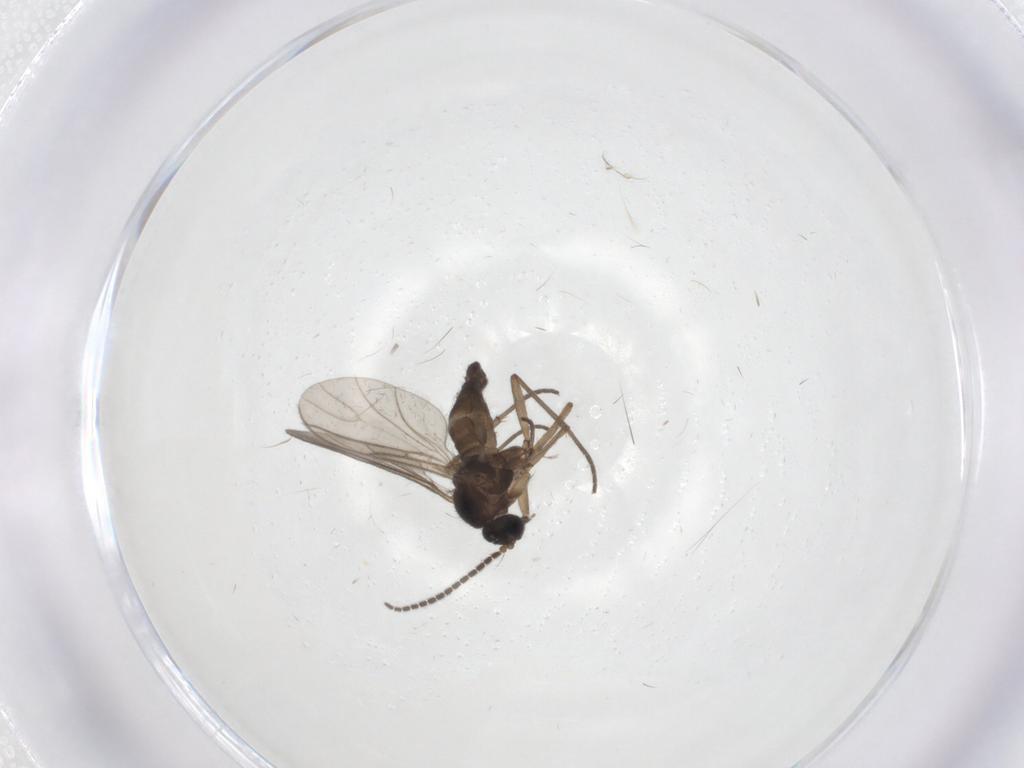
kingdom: Animalia
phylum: Arthropoda
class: Insecta
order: Diptera
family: Sciaridae
